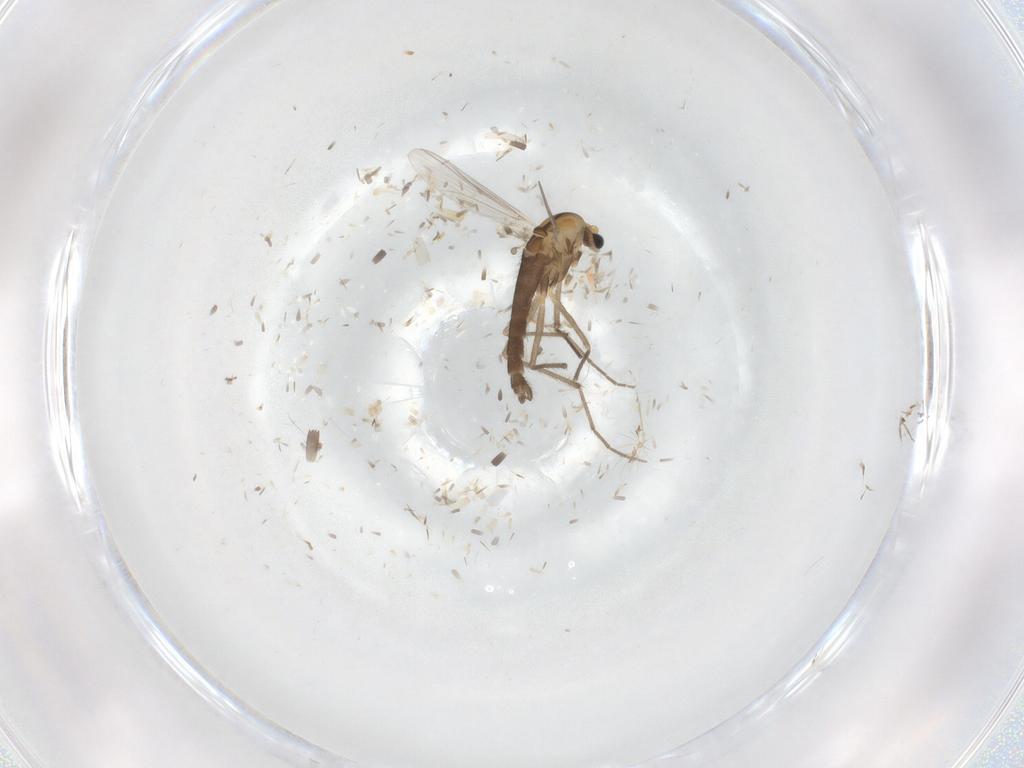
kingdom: Animalia
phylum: Arthropoda
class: Insecta
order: Diptera
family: Chironomidae
